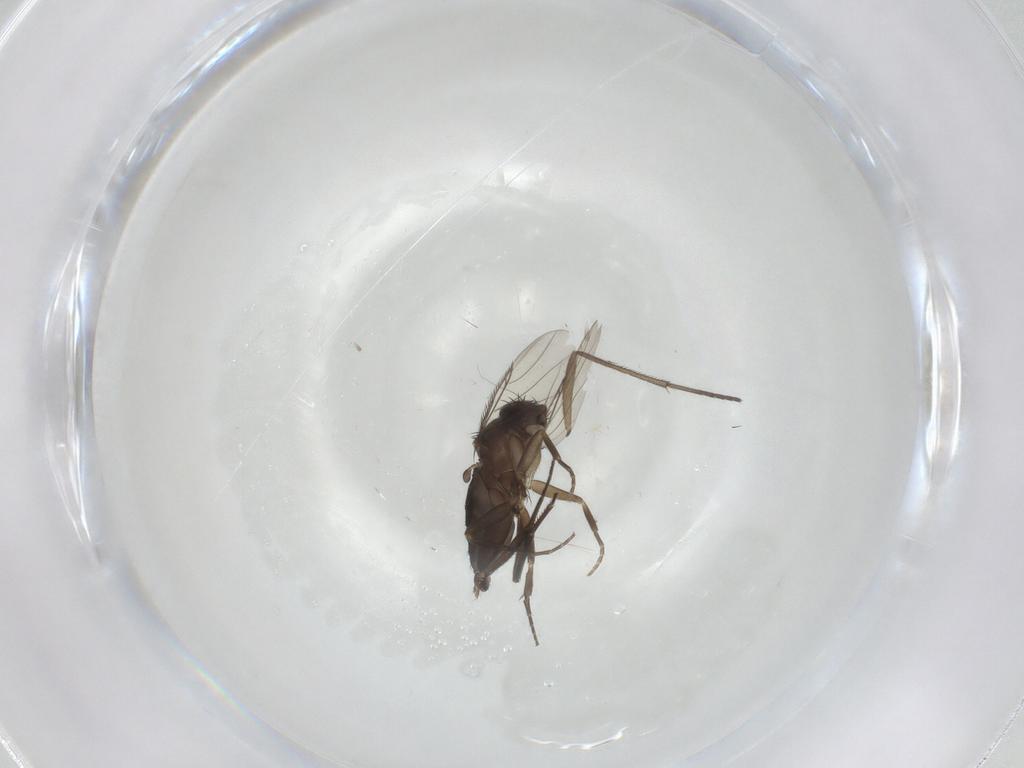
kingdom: Animalia
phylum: Arthropoda
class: Insecta
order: Diptera
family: Phoridae
